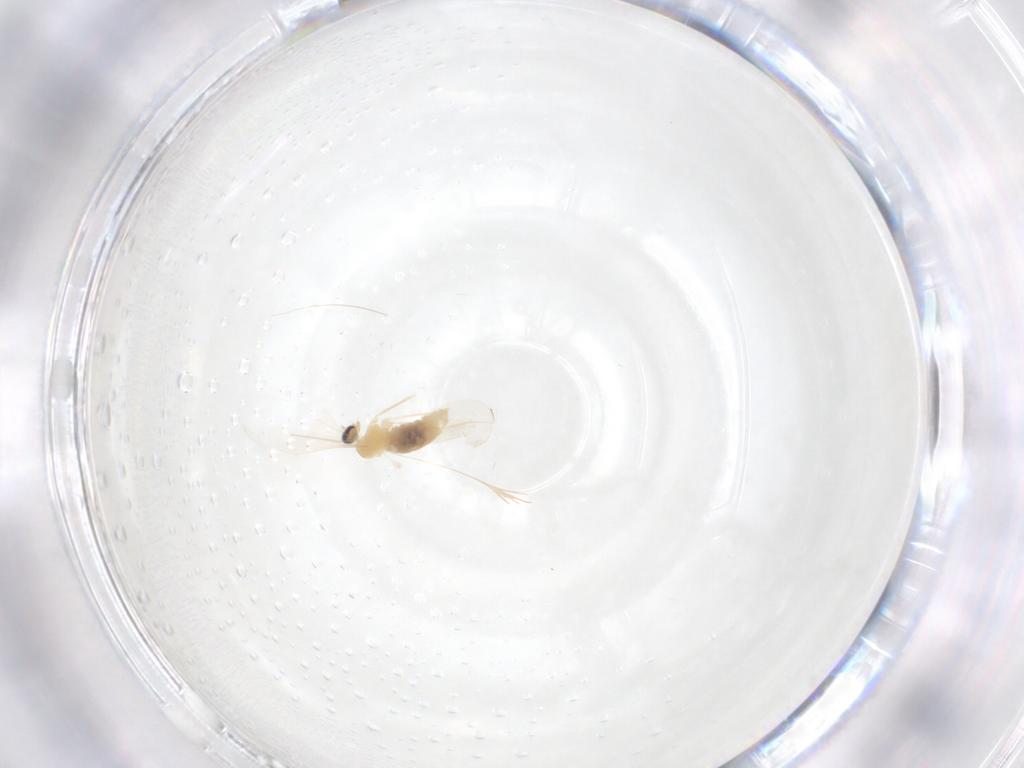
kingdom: Animalia
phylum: Arthropoda
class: Insecta
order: Diptera
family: Cecidomyiidae
